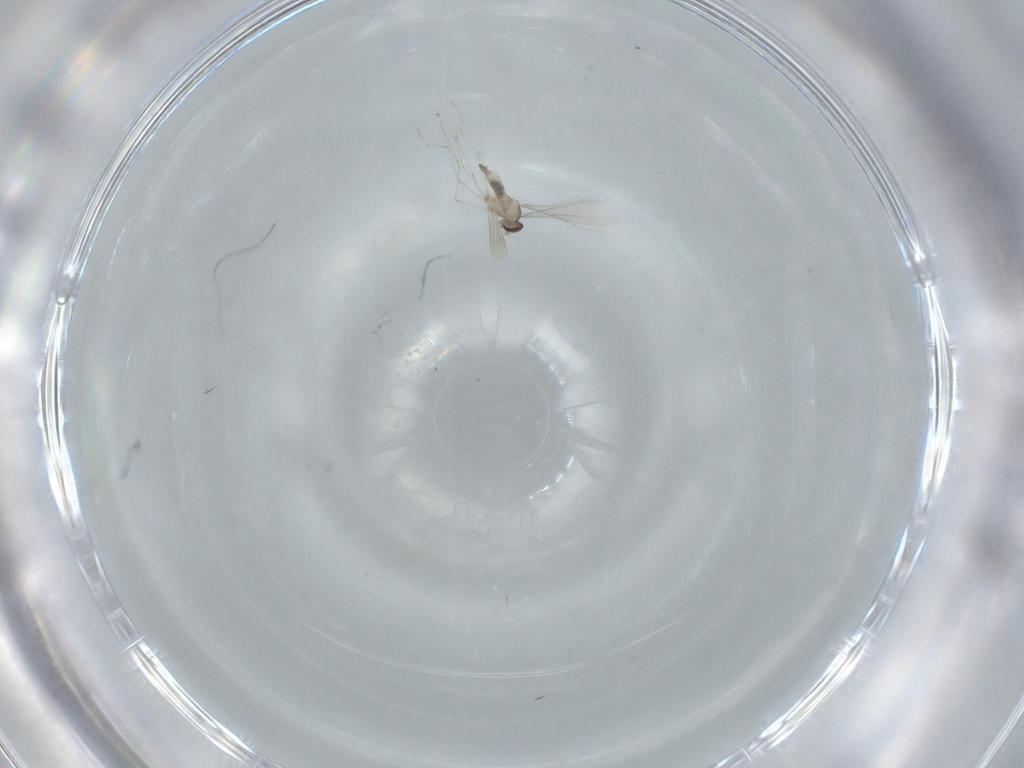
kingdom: Animalia
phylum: Arthropoda
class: Insecta
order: Diptera
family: Cecidomyiidae
